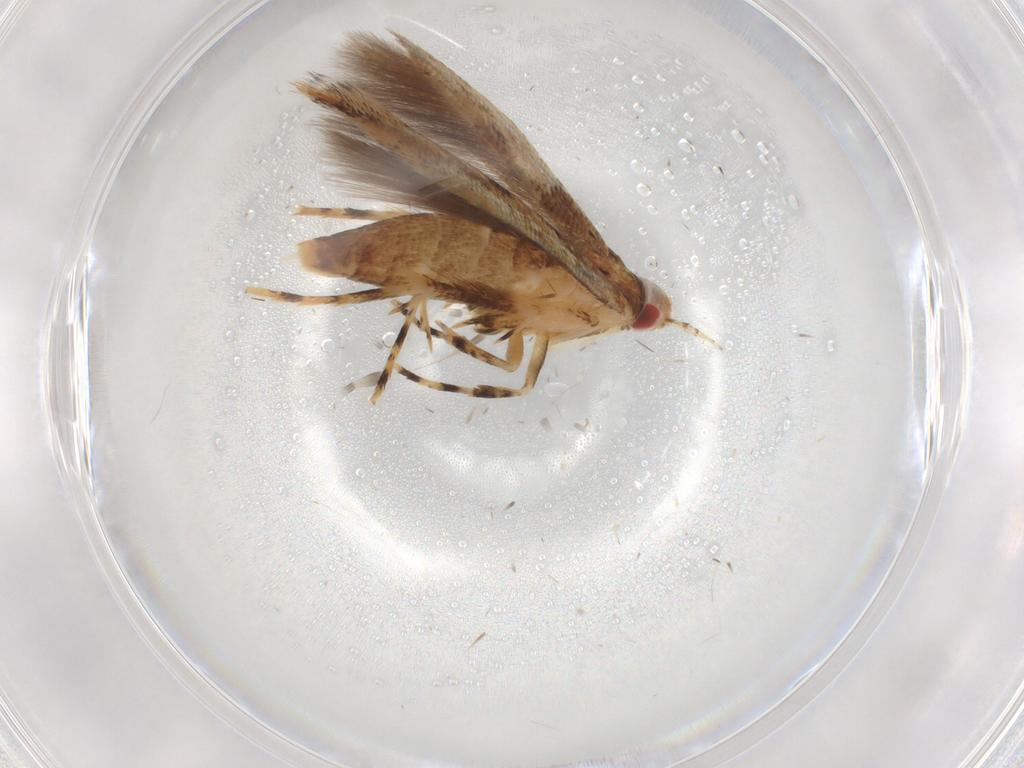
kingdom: Animalia
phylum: Arthropoda
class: Insecta
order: Lepidoptera
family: Cosmopterigidae
